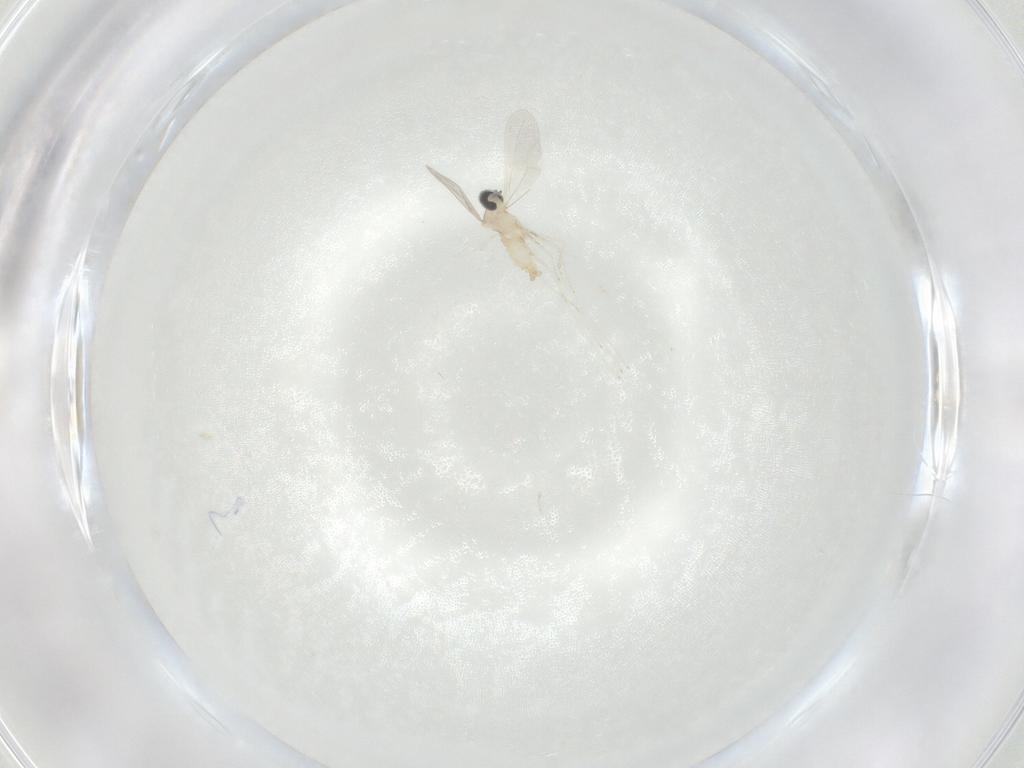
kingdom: Animalia
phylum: Arthropoda
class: Insecta
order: Diptera
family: Cecidomyiidae
